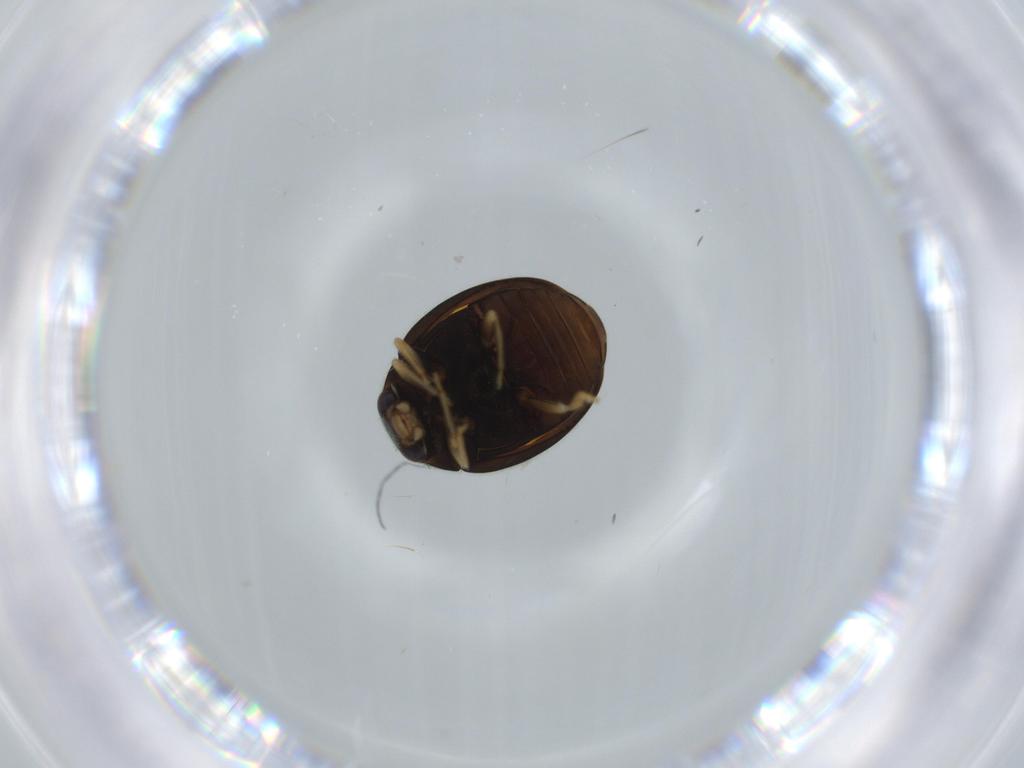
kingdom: Animalia
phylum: Arthropoda
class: Insecta
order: Coleoptera
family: Coccinellidae
